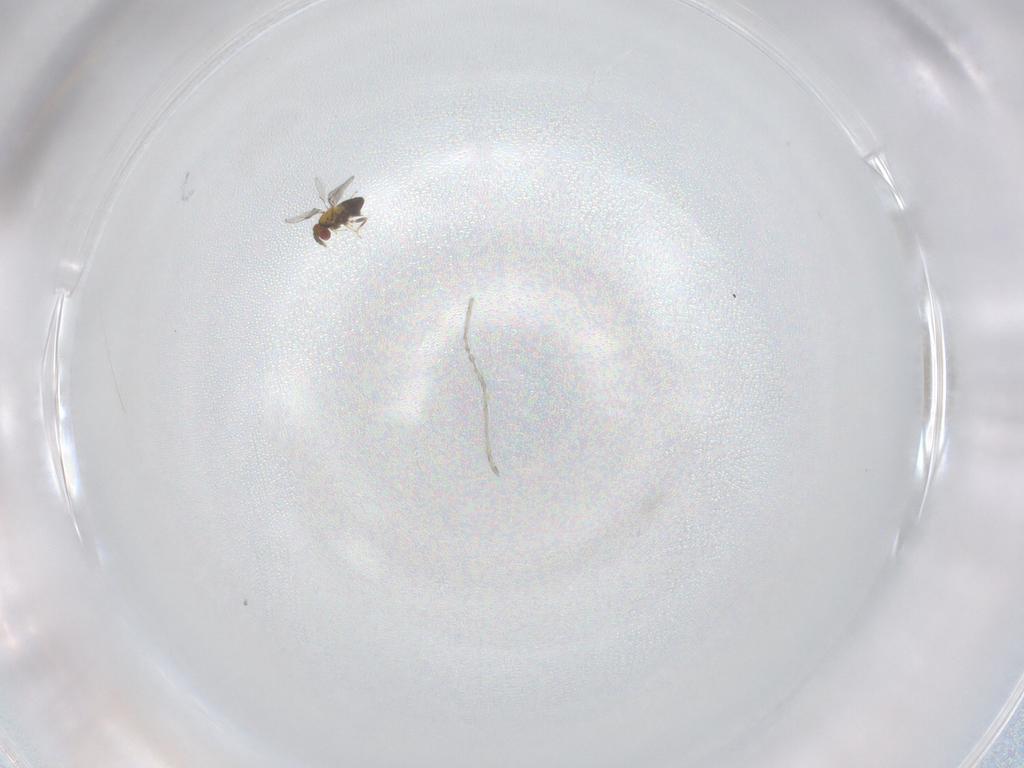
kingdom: Animalia
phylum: Arthropoda
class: Insecta
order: Hymenoptera
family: Trichogrammatidae
